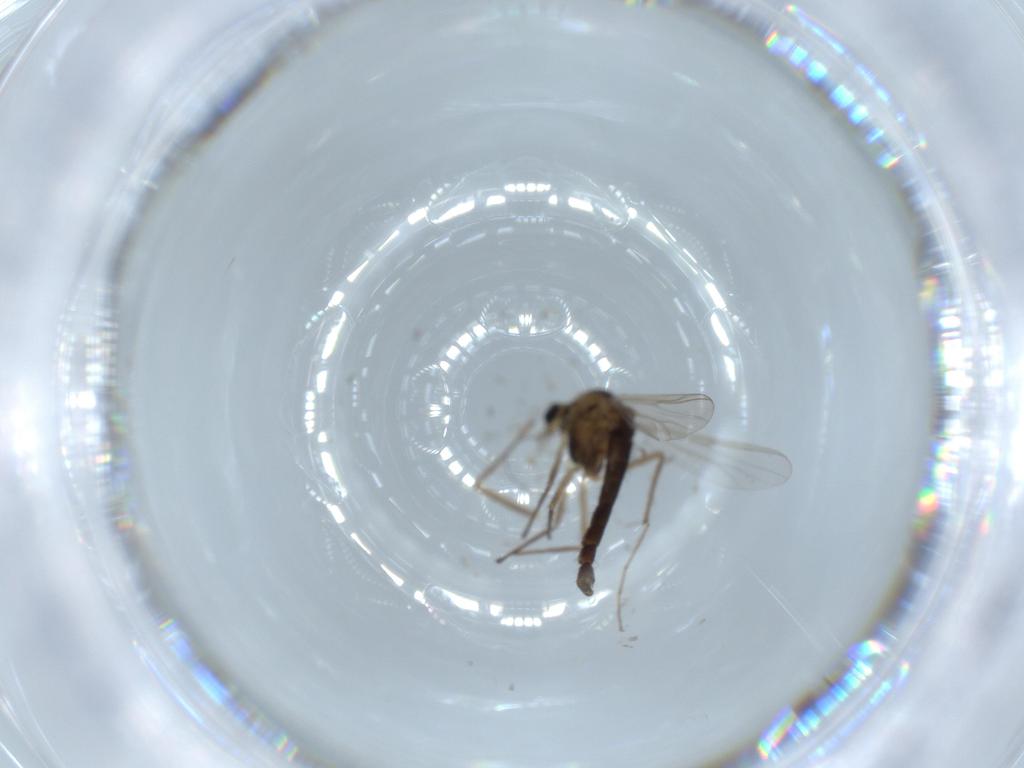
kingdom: Animalia
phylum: Arthropoda
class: Insecta
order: Diptera
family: Chironomidae
